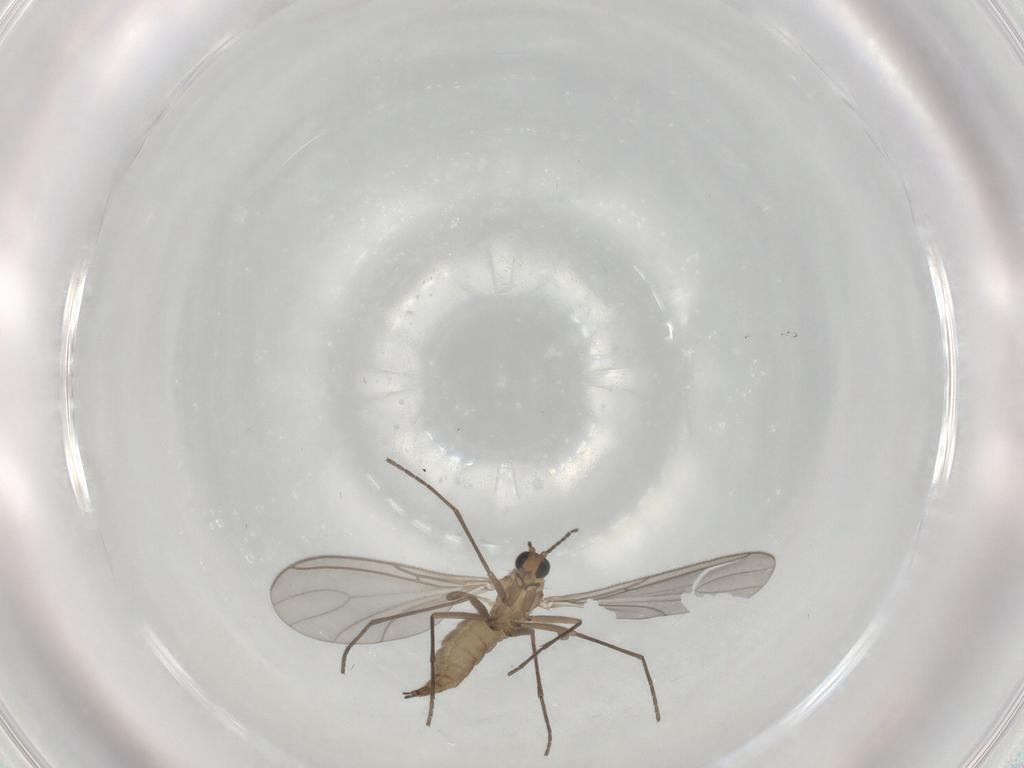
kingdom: Animalia
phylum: Arthropoda
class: Insecta
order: Diptera
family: Sciaridae
